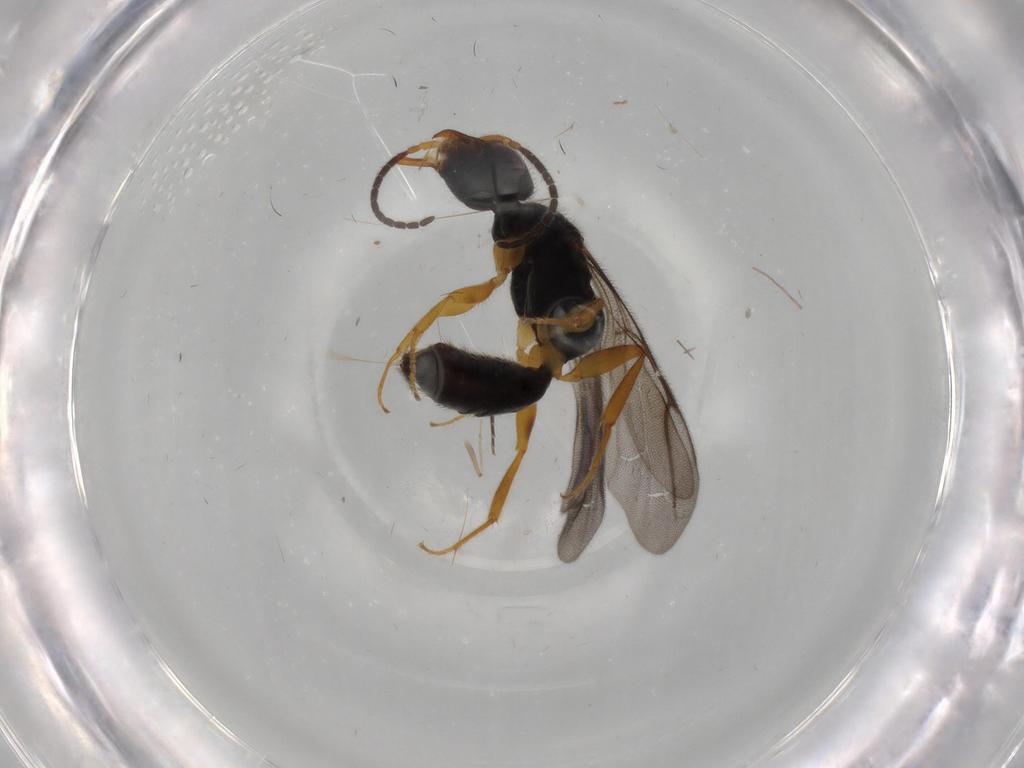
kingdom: Animalia
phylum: Arthropoda
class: Insecta
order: Hymenoptera
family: Bethylidae
